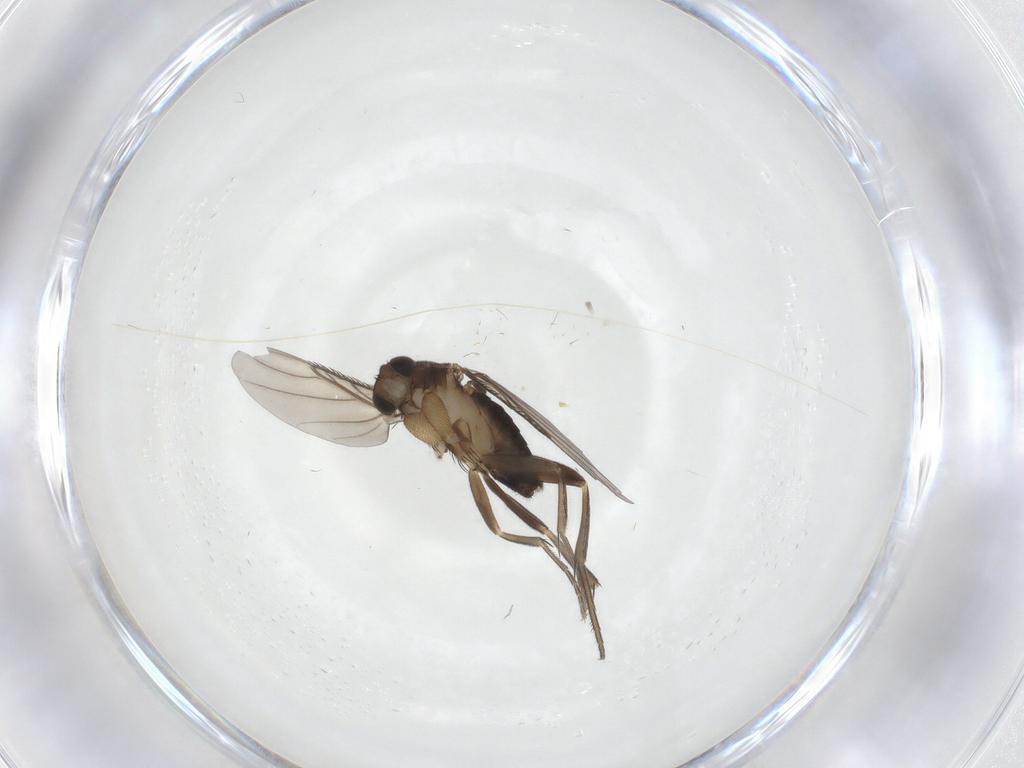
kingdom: Animalia
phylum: Arthropoda
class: Insecta
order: Diptera
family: Phoridae
